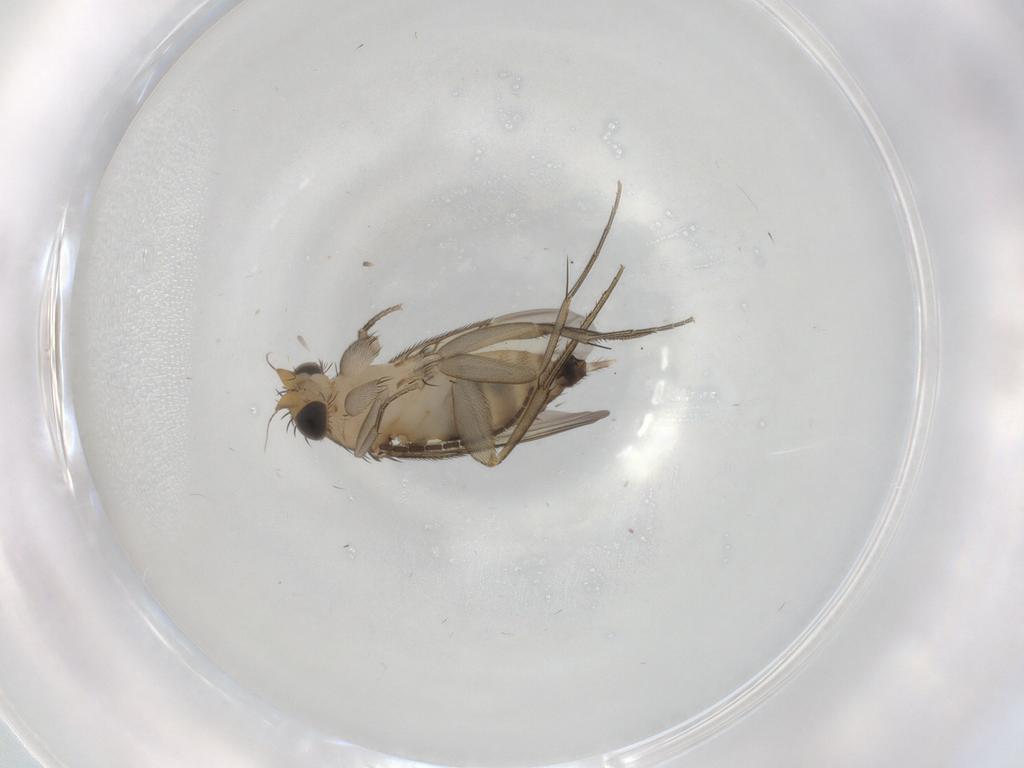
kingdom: Animalia
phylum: Arthropoda
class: Insecta
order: Diptera
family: Phoridae
